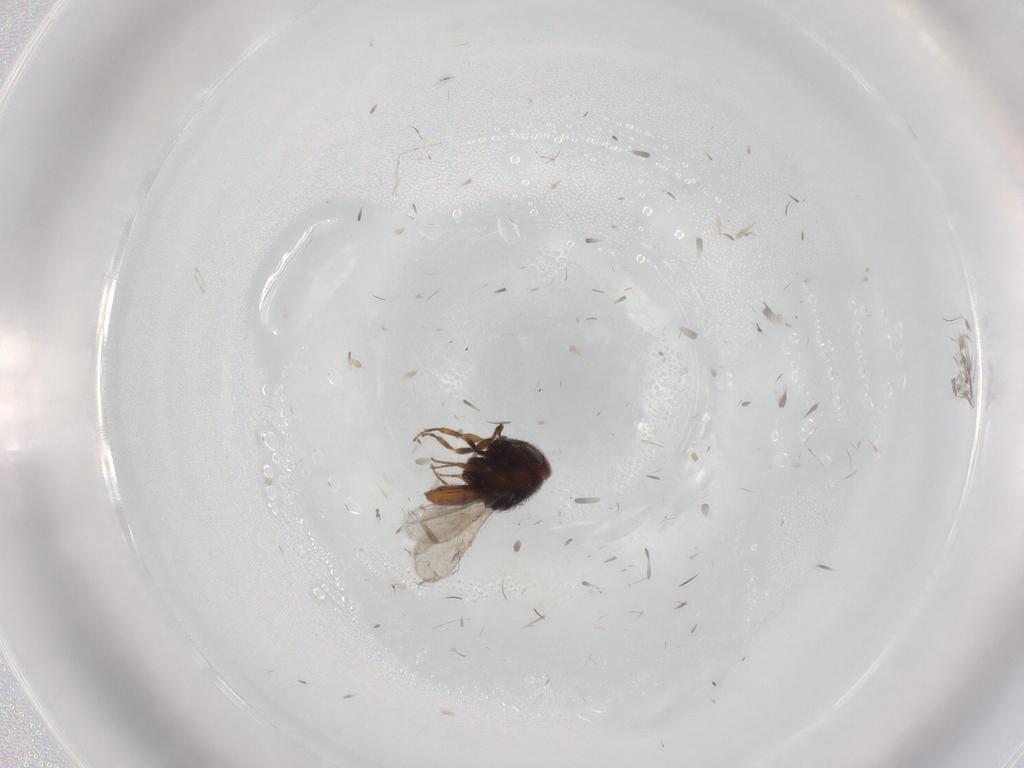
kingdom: Animalia
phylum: Arthropoda
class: Insecta
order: Hymenoptera
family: Scelionidae
